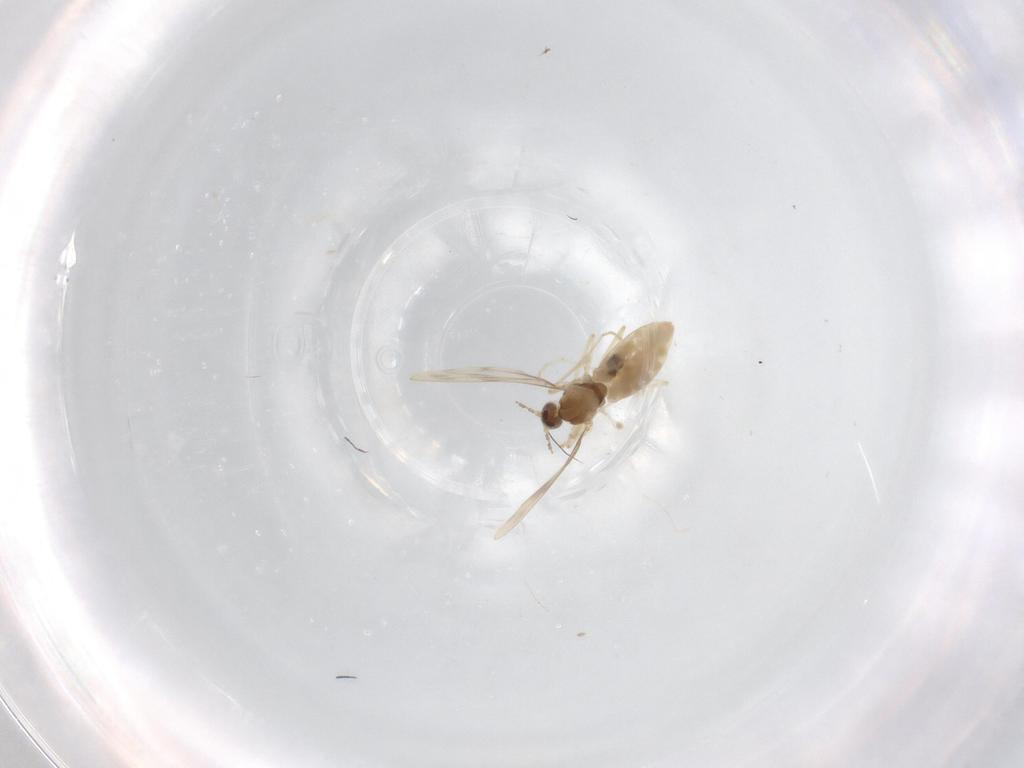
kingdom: Animalia
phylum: Arthropoda
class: Insecta
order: Diptera
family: Cecidomyiidae
